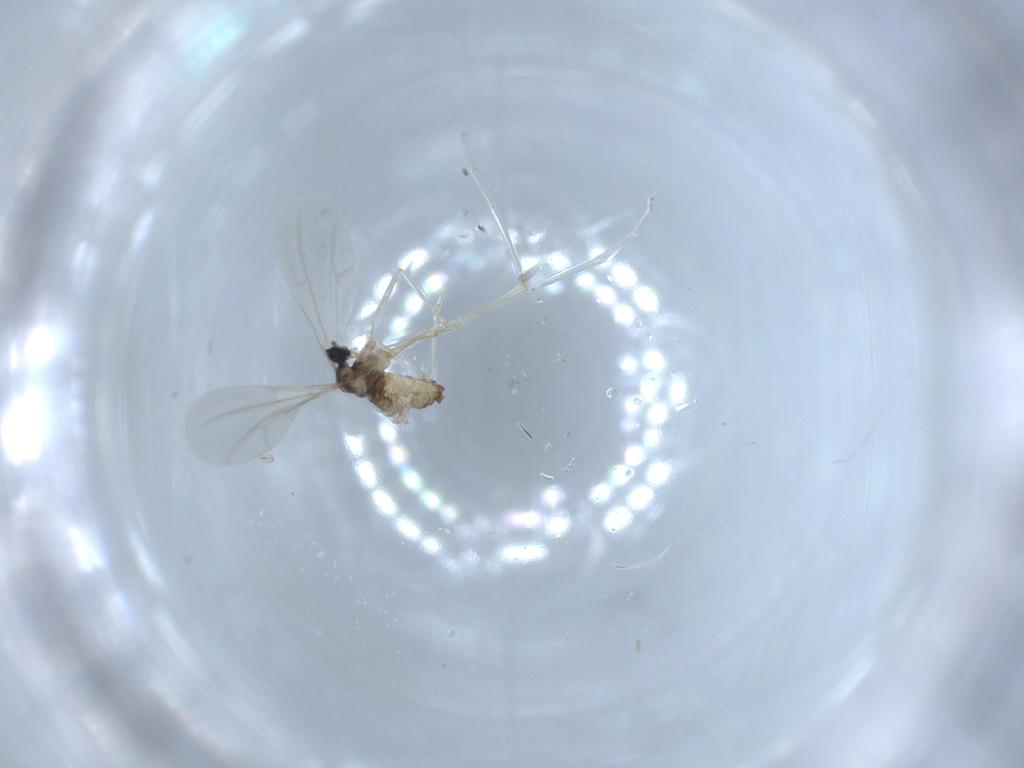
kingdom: Animalia
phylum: Arthropoda
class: Insecta
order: Diptera
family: Cecidomyiidae
